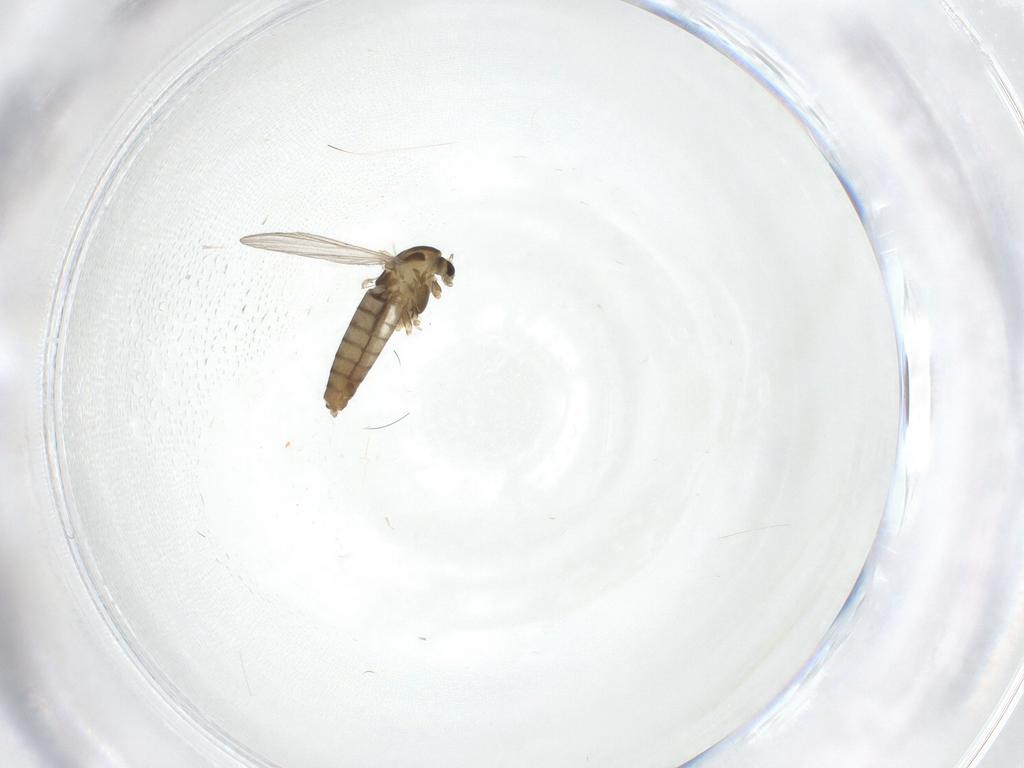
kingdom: Animalia
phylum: Arthropoda
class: Insecta
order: Diptera
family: Chironomidae
